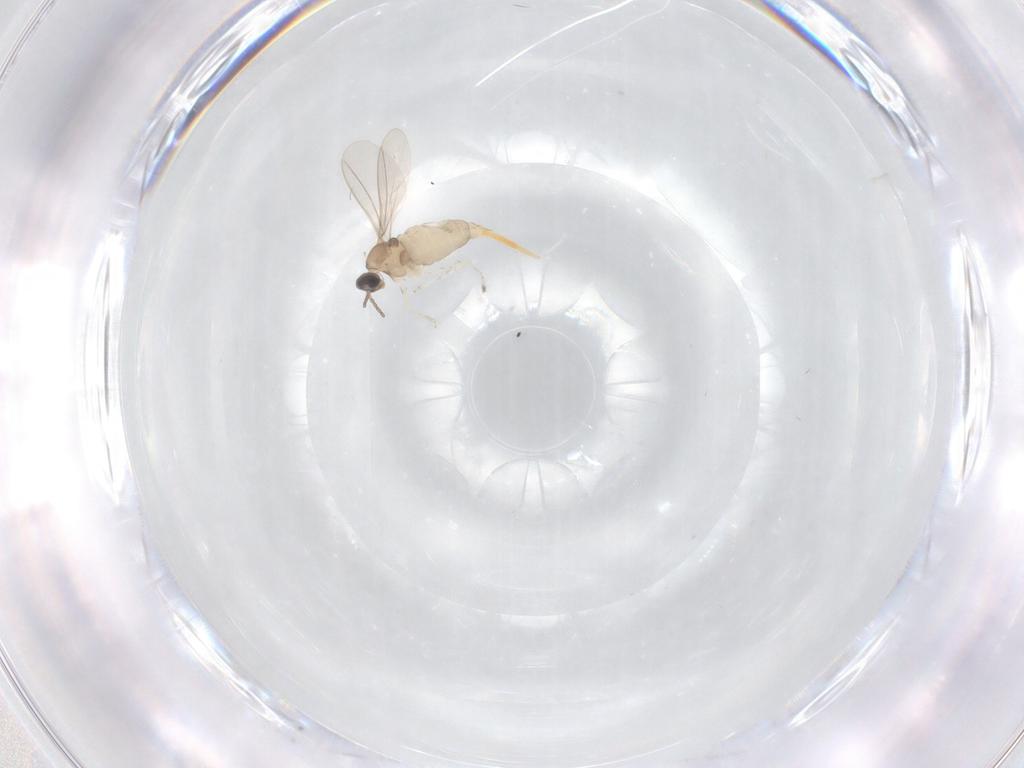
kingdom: Animalia
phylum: Arthropoda
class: Insecta
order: Diptera
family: Cecidomyiidae
